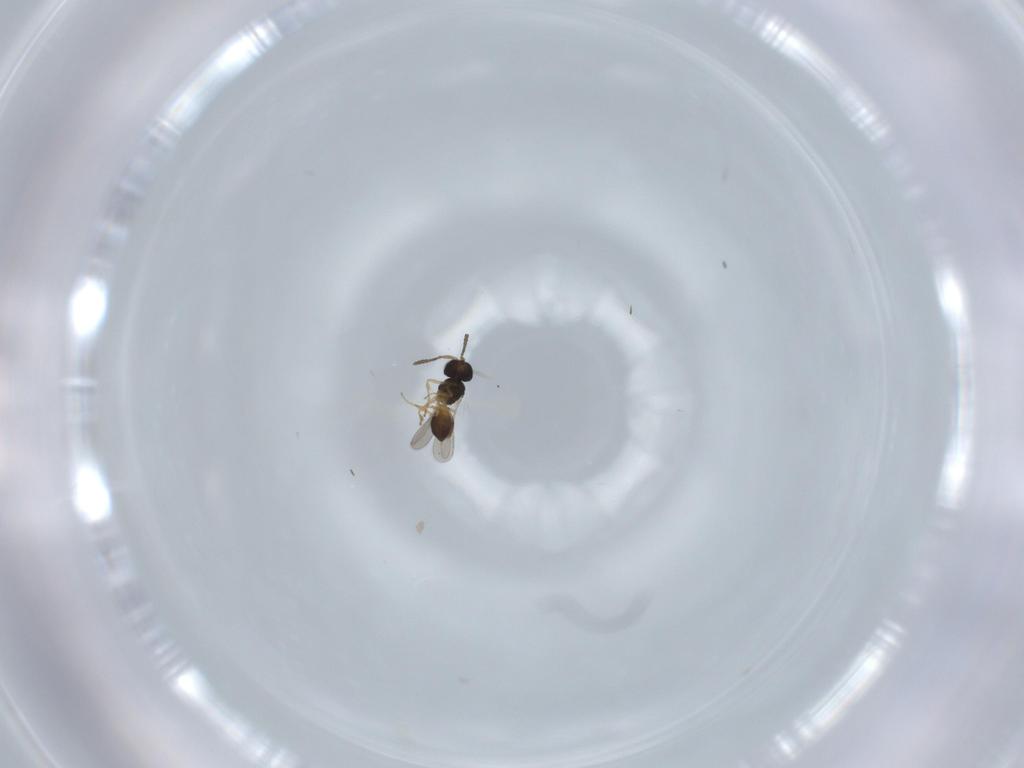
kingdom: Animalia
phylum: Arthropoda
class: Insecta
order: Hymenoptera
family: Scelionidae
